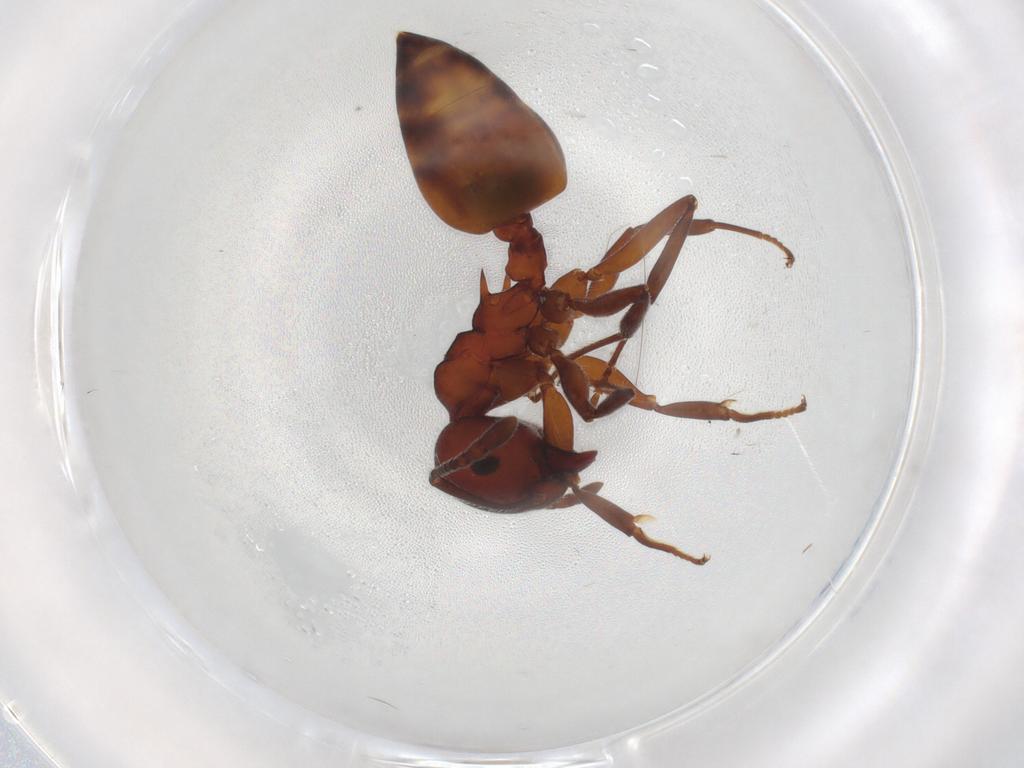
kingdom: Animalia
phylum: Arthropoda
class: Insecta
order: Hymenoptera
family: Formicidae
